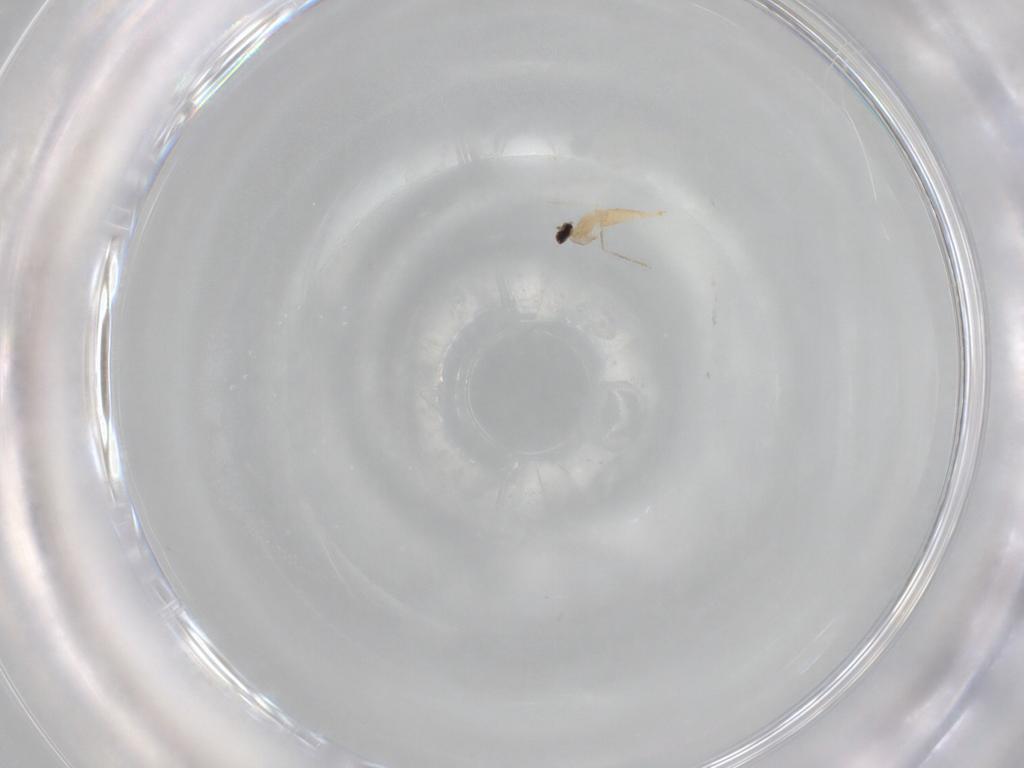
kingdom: Animalia
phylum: Arthropoda
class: Insecta
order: Diptera
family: Cecidomyiidae
